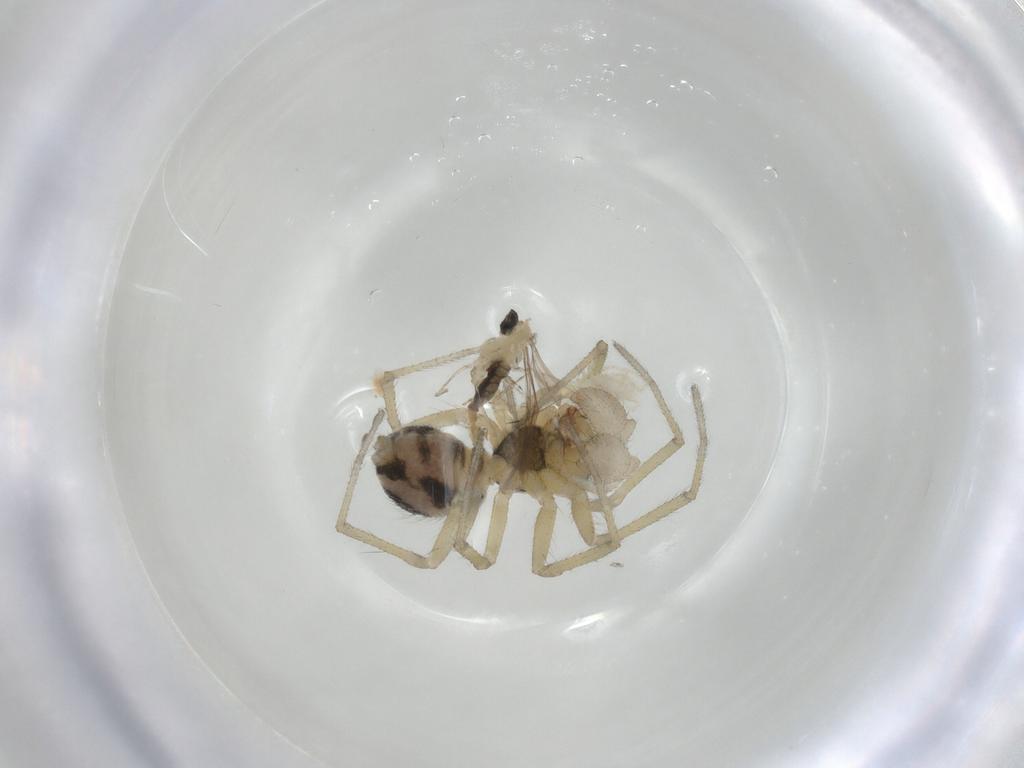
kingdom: Animalia
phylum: Arthropoda
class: Arachnida
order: Araneae
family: Linyphiidae
